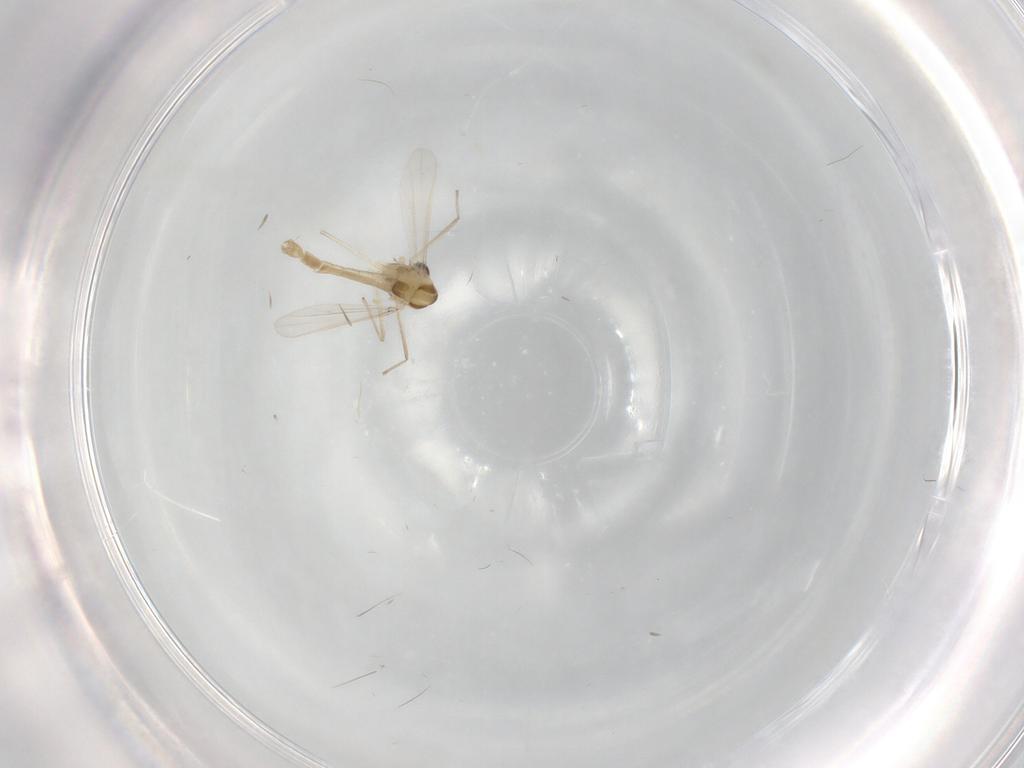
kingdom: Animalia
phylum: Arthropoda
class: Insecta
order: Diptera
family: Chironomidae
